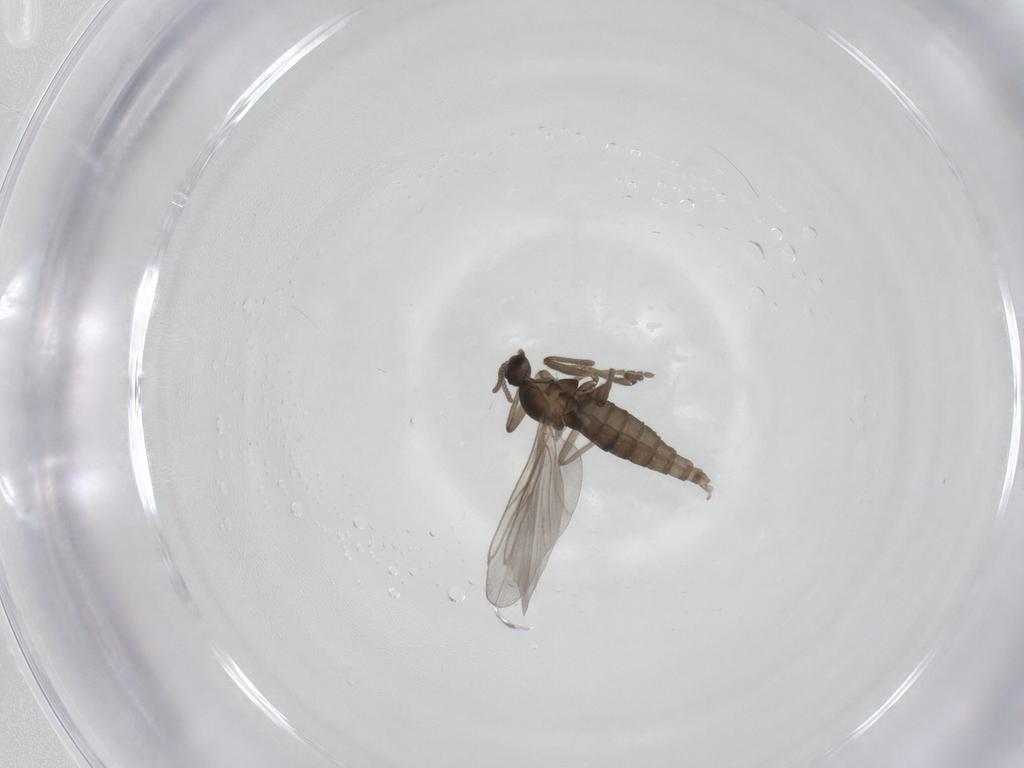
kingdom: Animalia
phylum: Arthropoda
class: Insecta
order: Diptera
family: Cecidomyiidae
